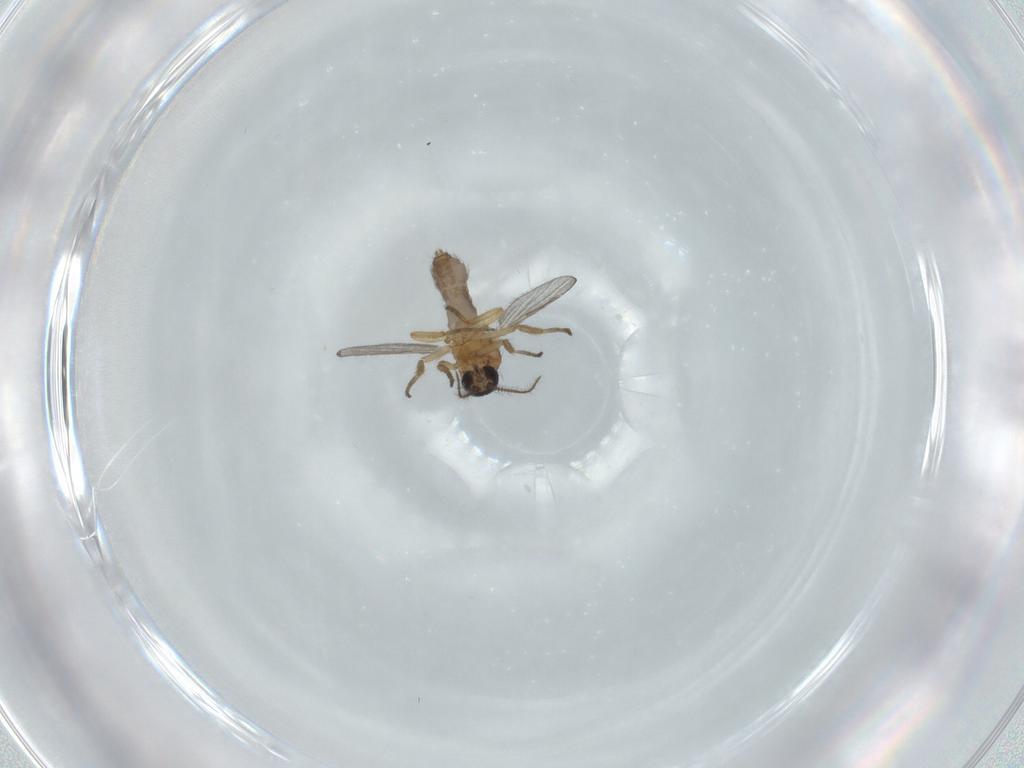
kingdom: Animalia
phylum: Arthropoda
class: Insecta
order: Diptera
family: Ceratopogonidae
